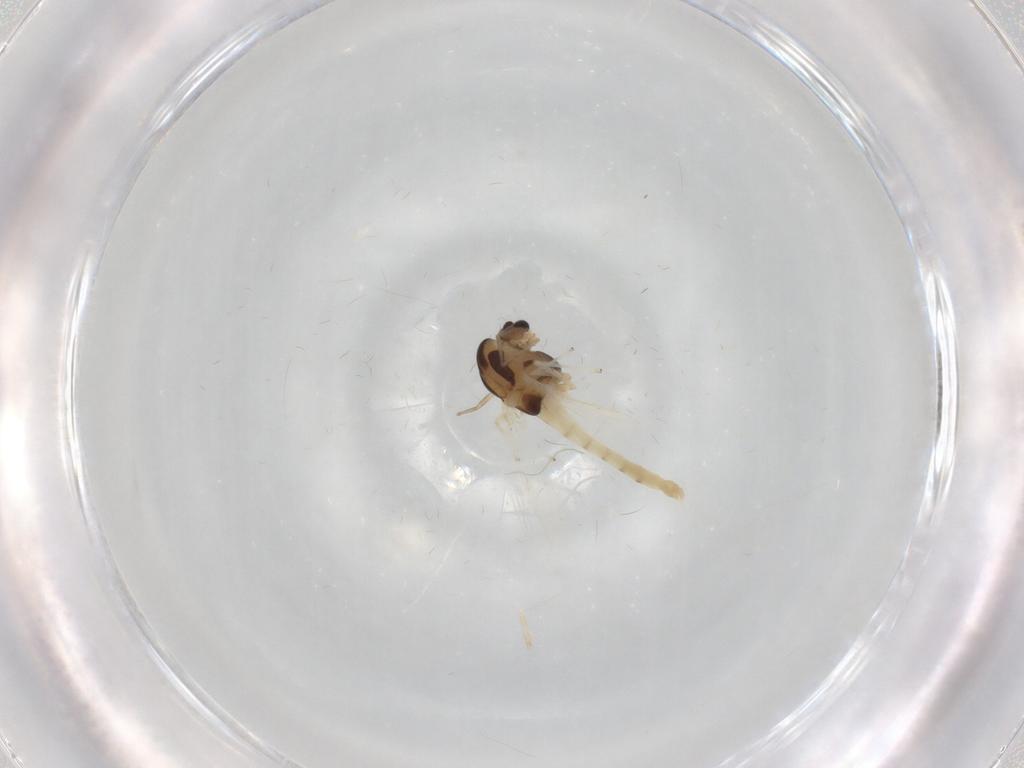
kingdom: Animalia
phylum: Arthropoda
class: Insecta
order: Diptera
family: Chironomidae
